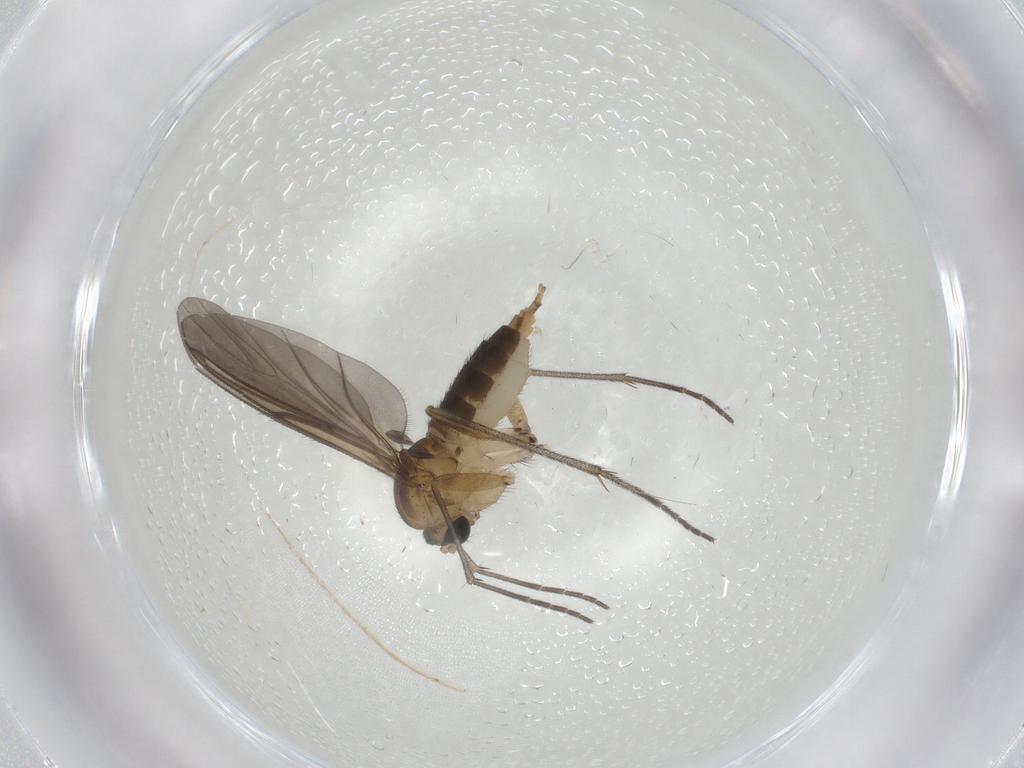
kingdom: Animalia
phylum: Arthropoda
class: Insecta
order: Diptera
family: Sciaridae
